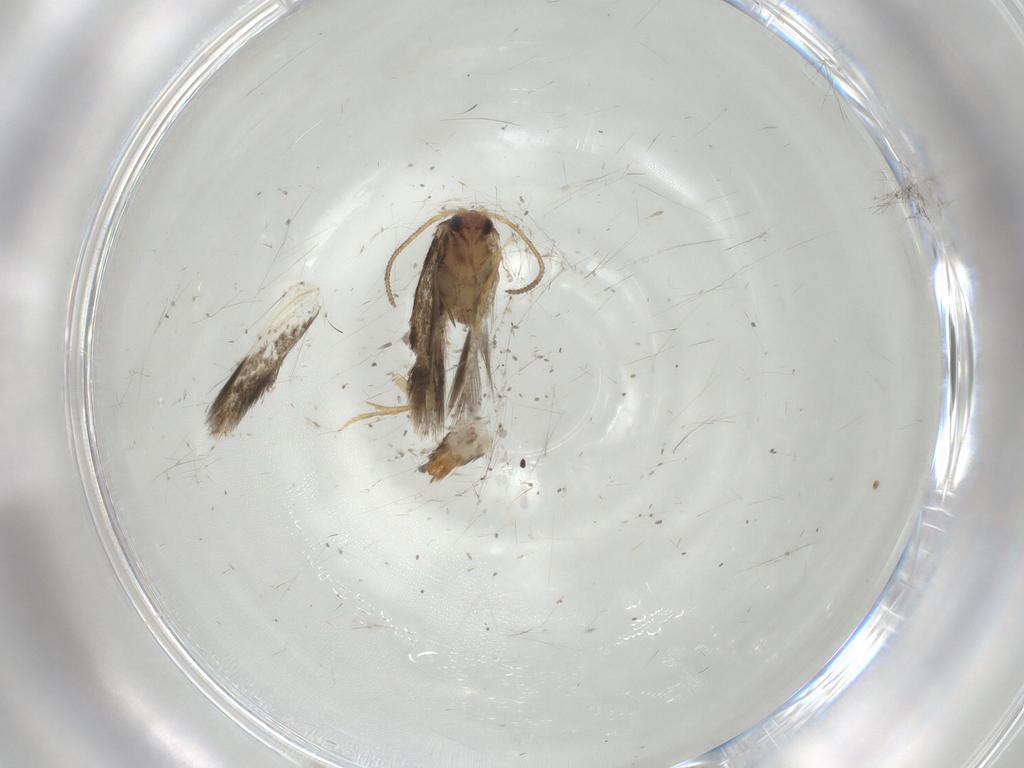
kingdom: Animalia
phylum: Arthropoda
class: Insecta
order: Lepidoptera
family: Nepticulidae
